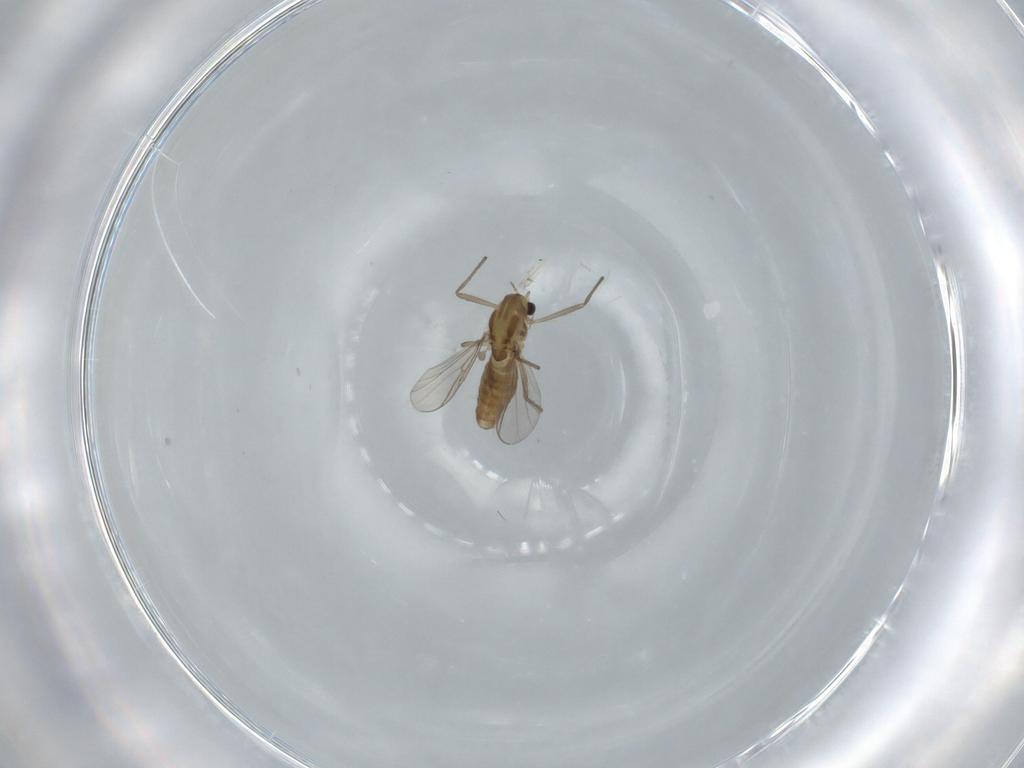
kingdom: Animalia
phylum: Arthropoda
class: Insecta
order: Diptera
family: Chironomidae
